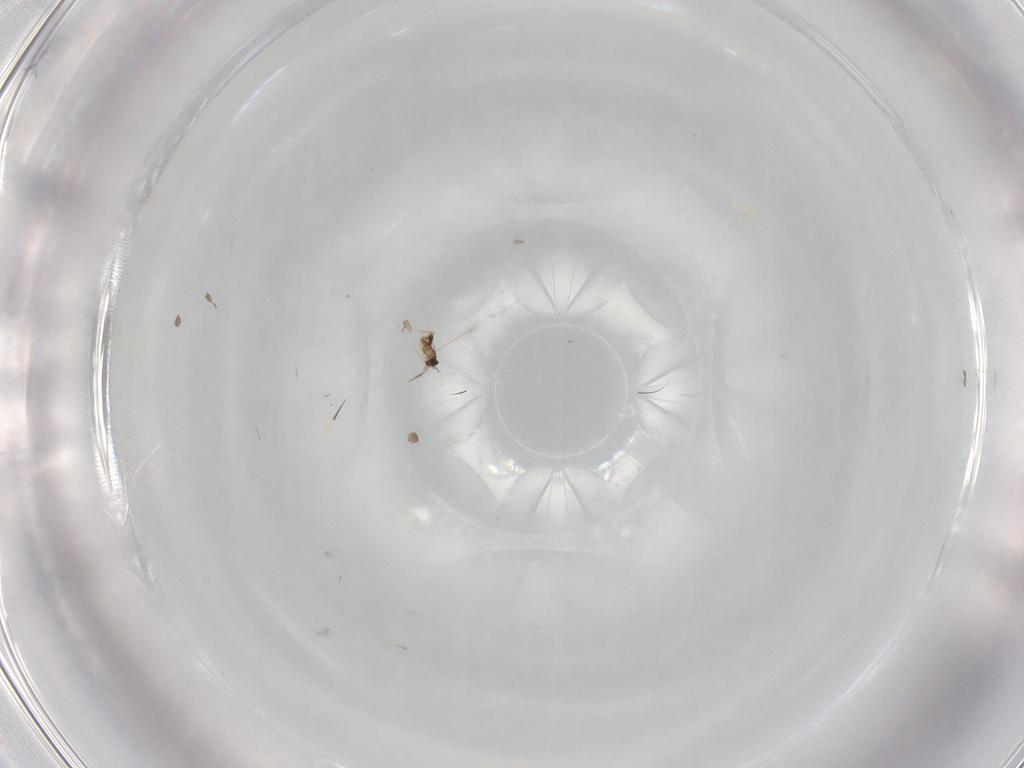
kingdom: Animalia
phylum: Arthropoda
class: Insecta
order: Hymenoptera
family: Mymaridae
